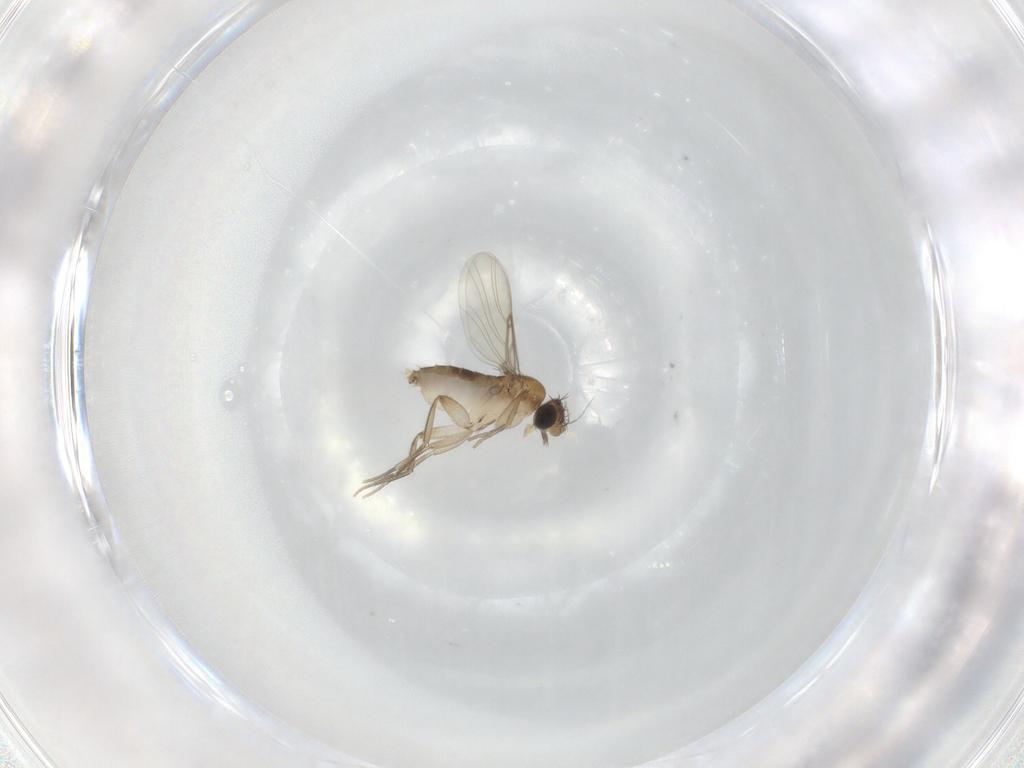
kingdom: Animalia
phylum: Arthropoda
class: Insecta
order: Diptera
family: Phoridae
